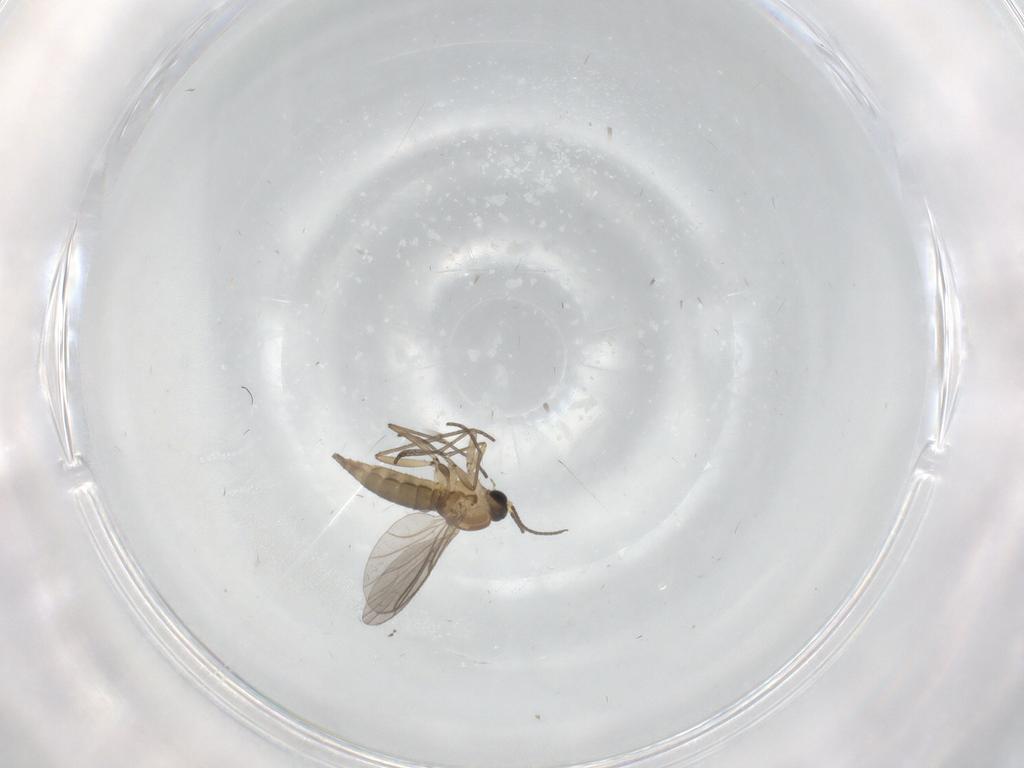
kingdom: Animalia
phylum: Arthropoda
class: Insecta
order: Diptera
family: Sciaridae
